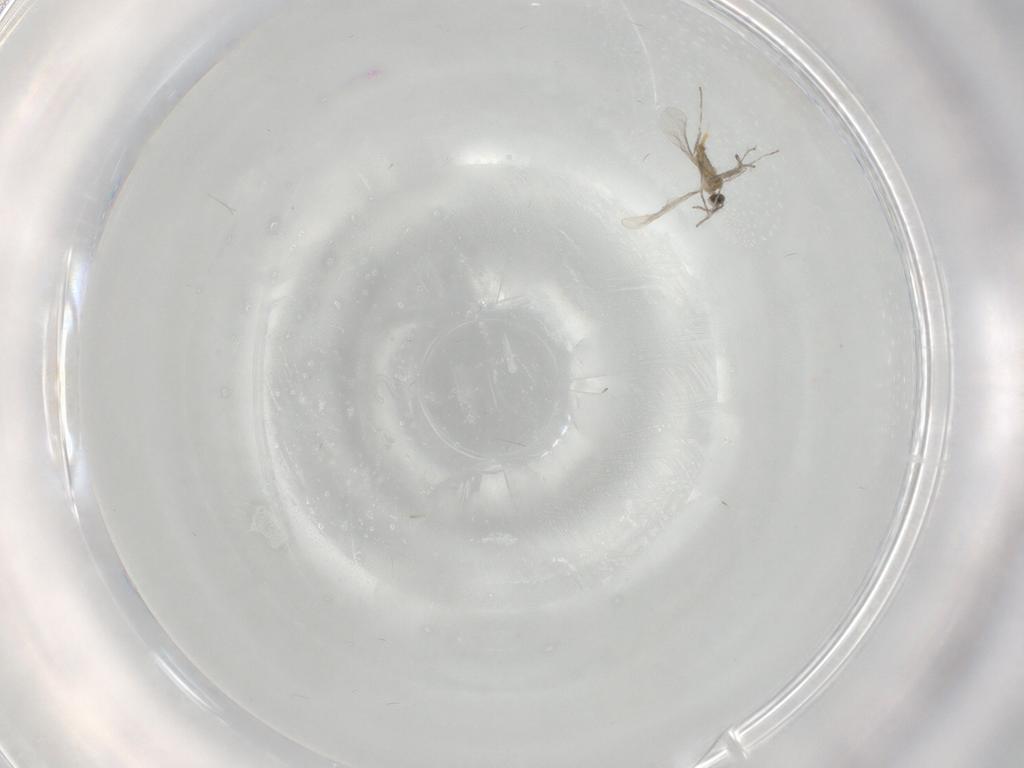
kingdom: Animalia
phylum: Arthropoda
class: Insecta
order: Diptera
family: Cecidomyiidae
